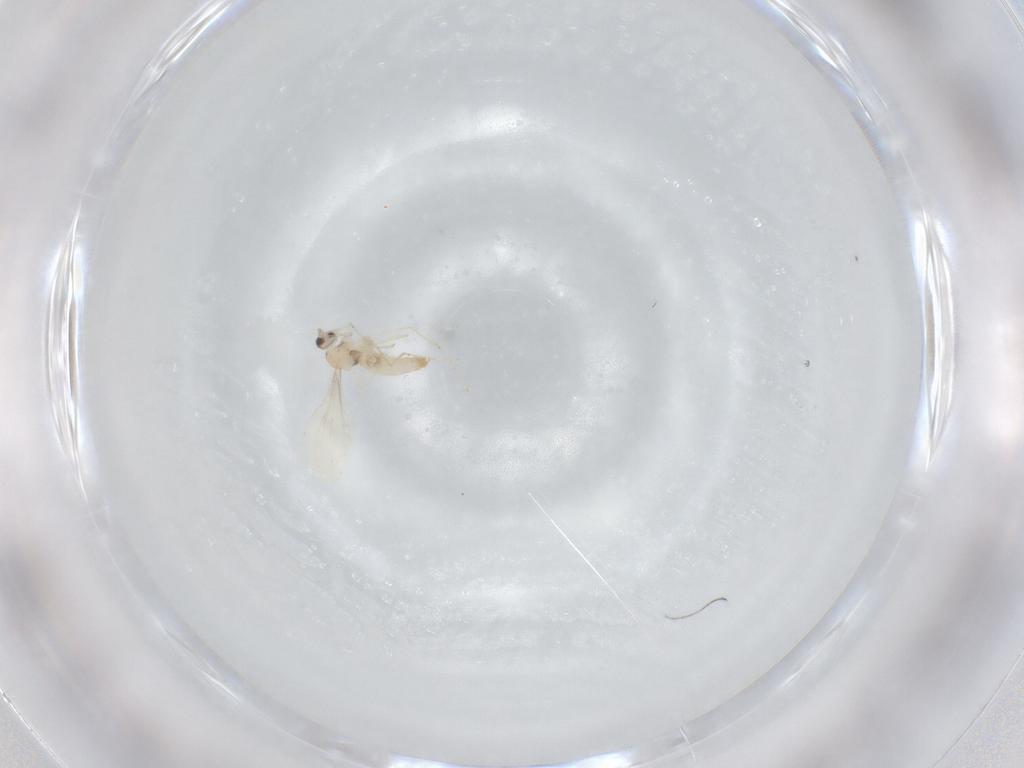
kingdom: Animalia
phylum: Arthropoda
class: Insecta
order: Diptera
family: Cecidomyiidae
